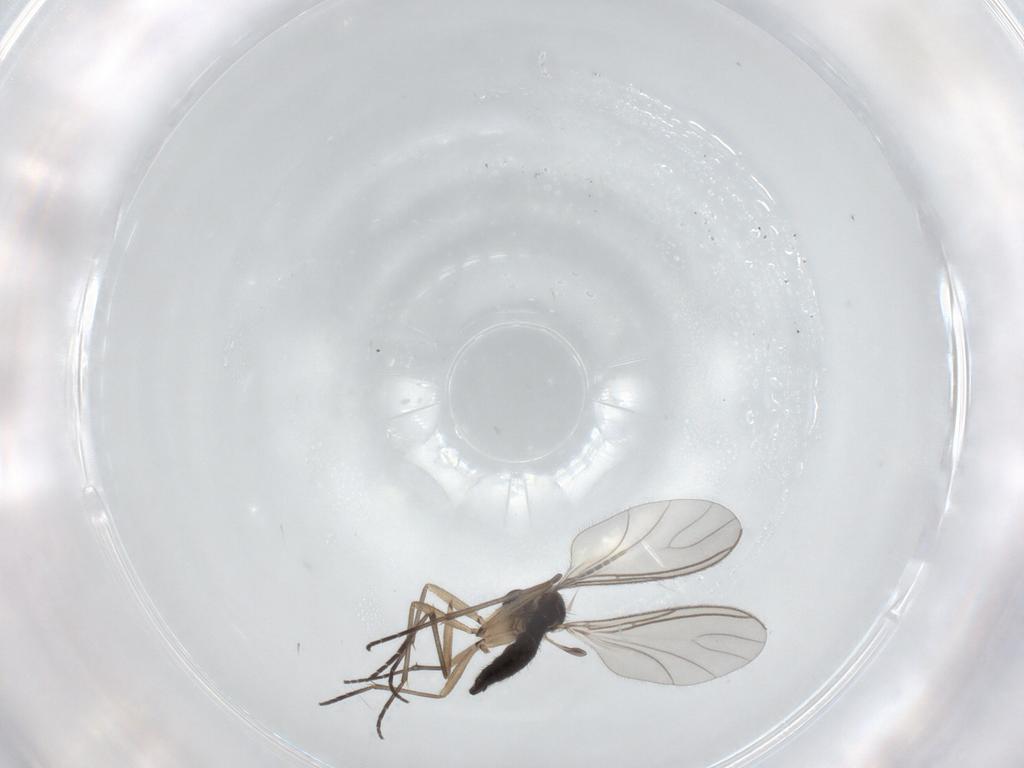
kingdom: Animalia
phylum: Arthropoda
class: Insecta
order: Diptera
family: Sciaridae
